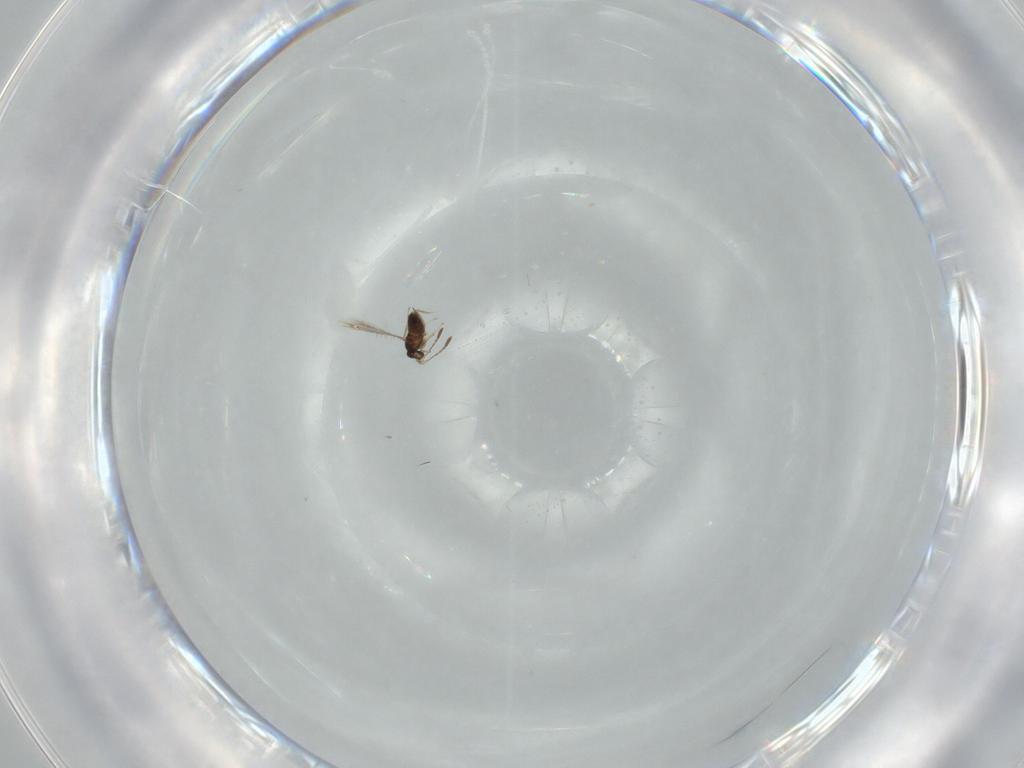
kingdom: Animalia
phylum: Arthropoda
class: Insecta
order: Hymenoptera
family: Braconidae
